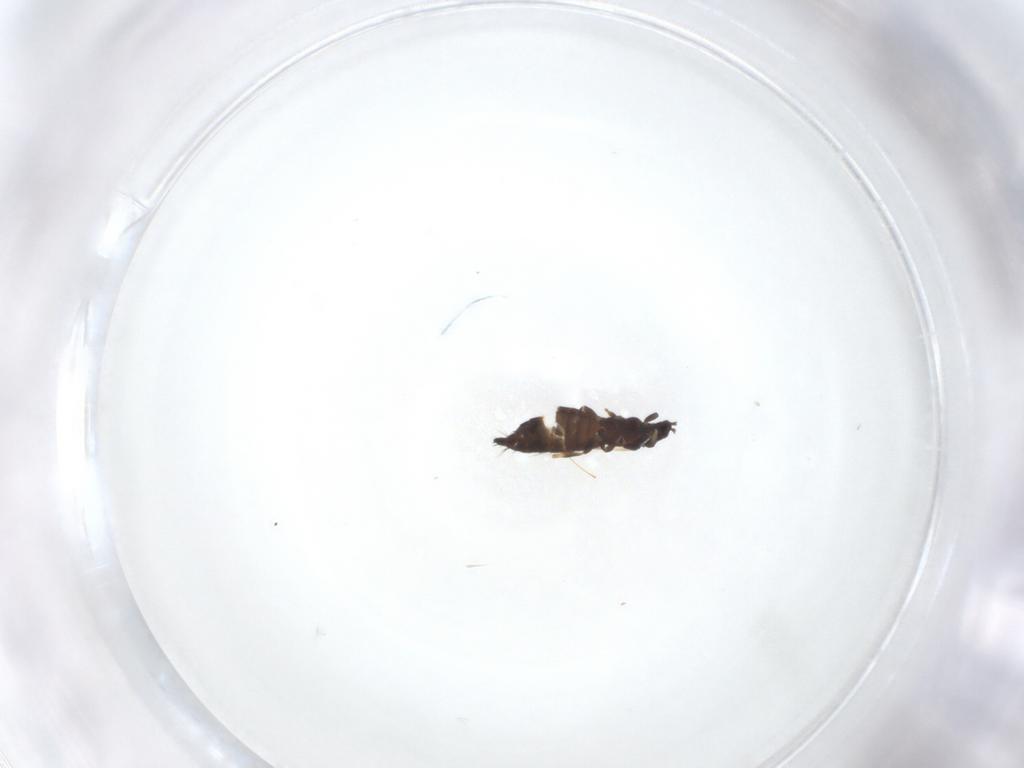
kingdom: Animalia
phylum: Arthropoda
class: Insecta
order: Thysanoptera
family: Thripidae
